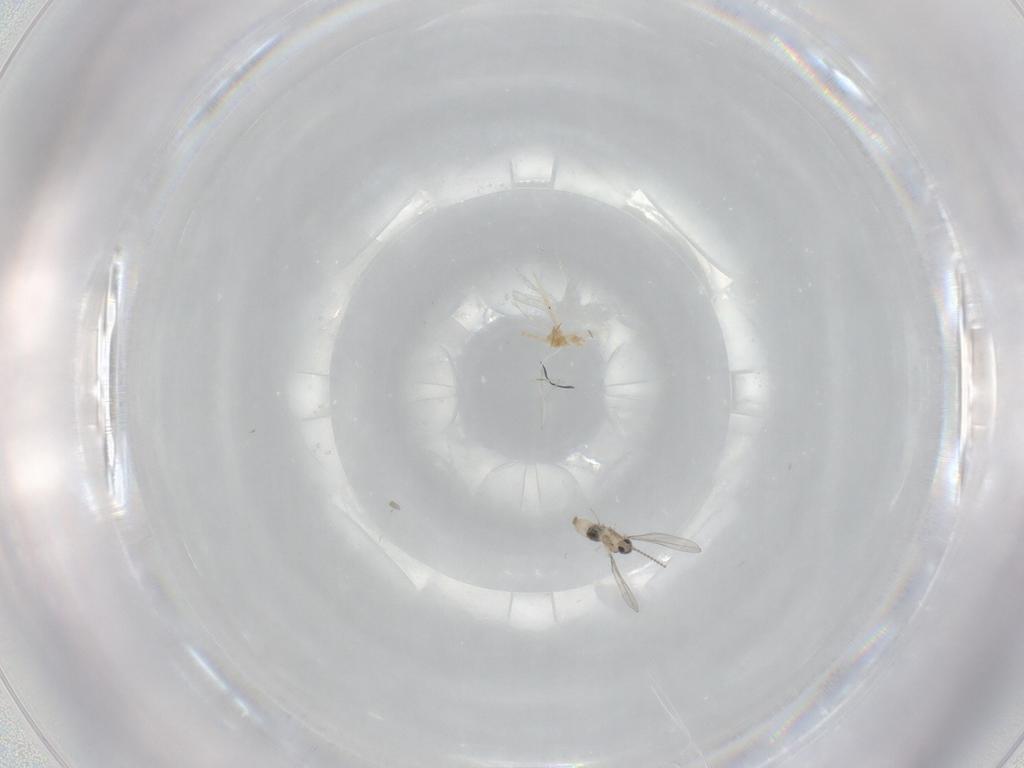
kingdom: Animalia
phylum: Arthropoda
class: Insecta
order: Diptera
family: Cecidomyiidae
